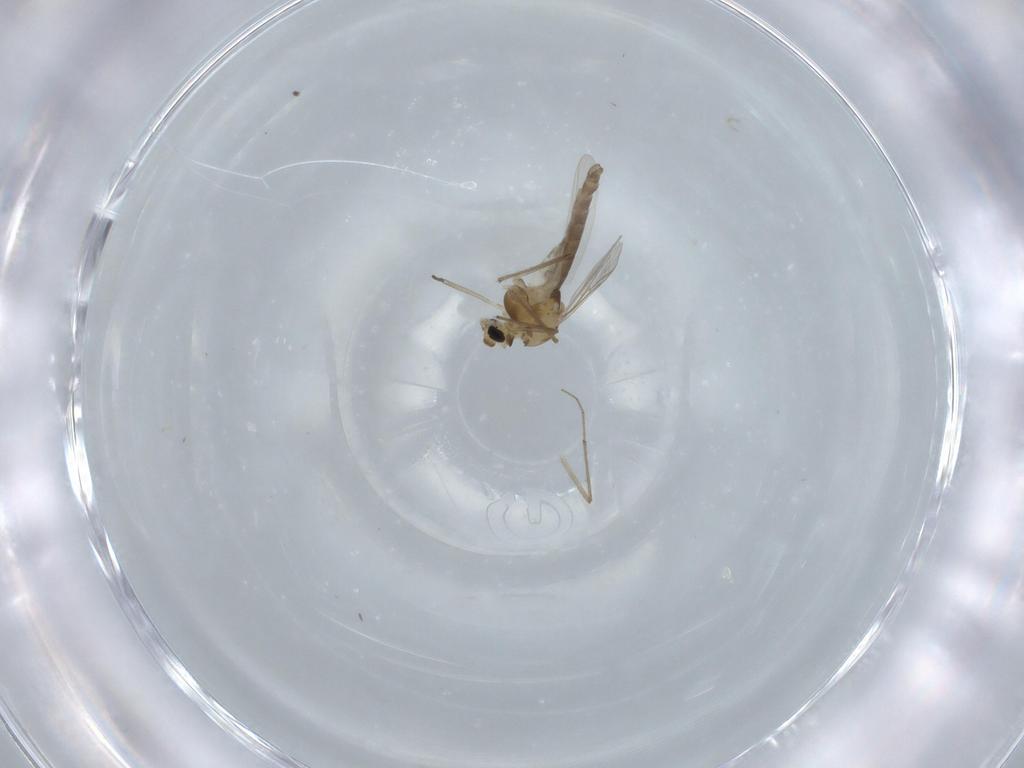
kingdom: Animalia
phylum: Arthropoda
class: Insecta
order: Diptera
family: Chironomidae
